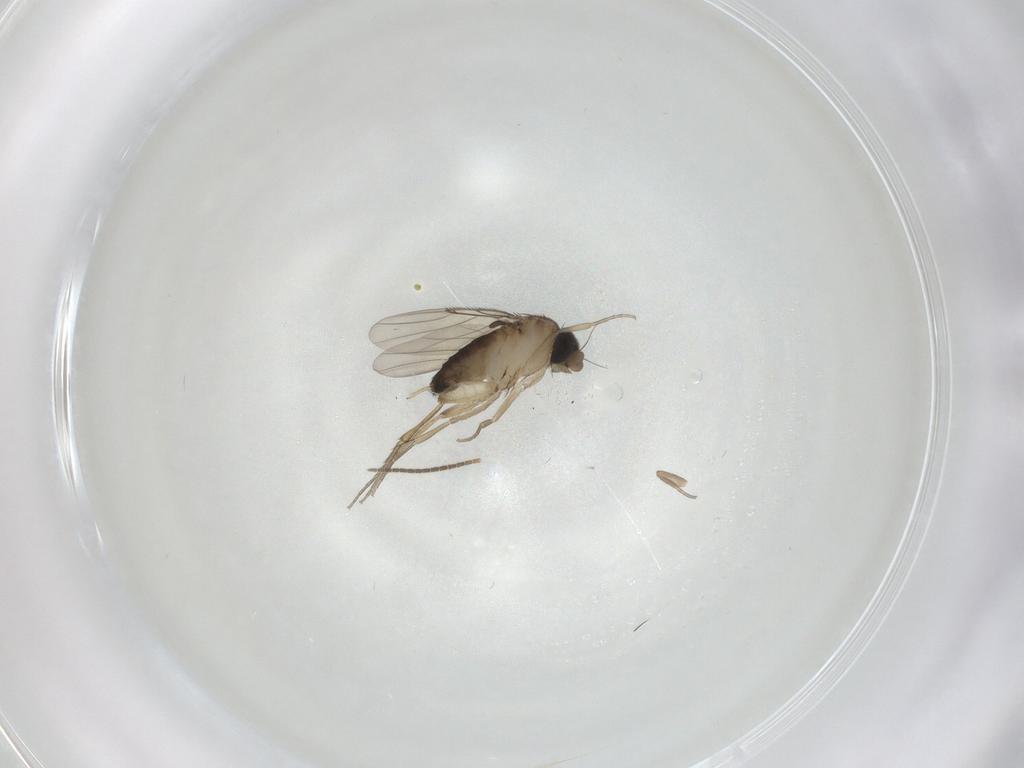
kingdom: Animalia
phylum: Arthropoda
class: Insecta
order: Diptera
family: Phoridae
